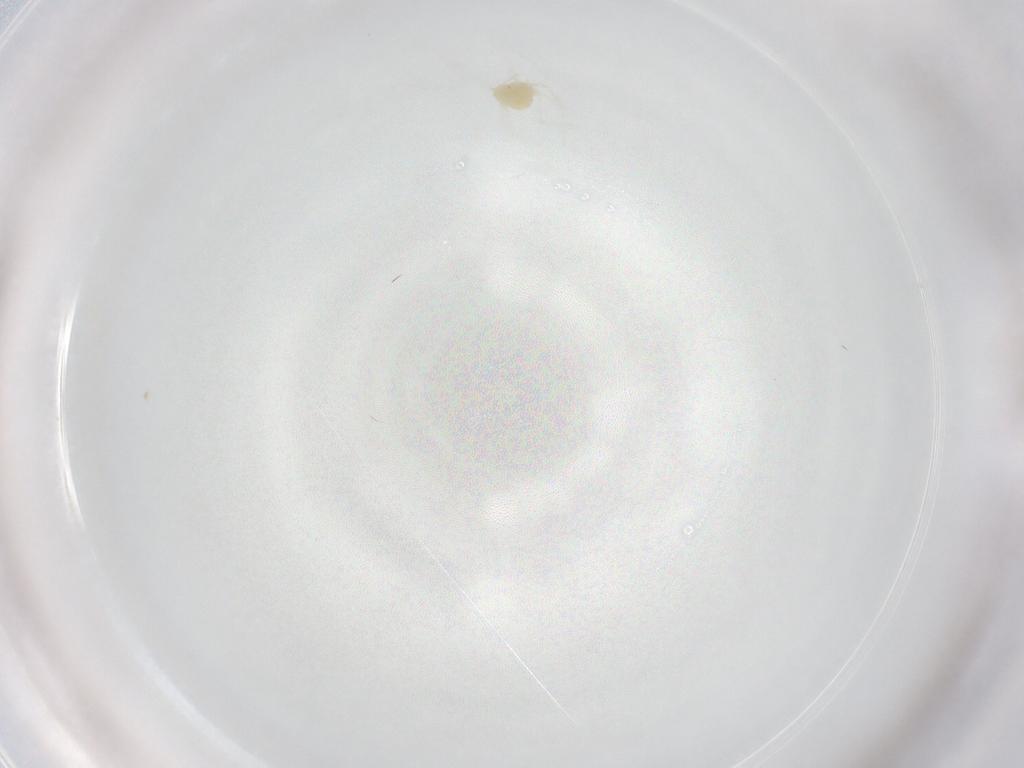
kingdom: Animalia
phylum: Arthropoda
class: Arachnida
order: Trombidiformes
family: Tetranychidae
